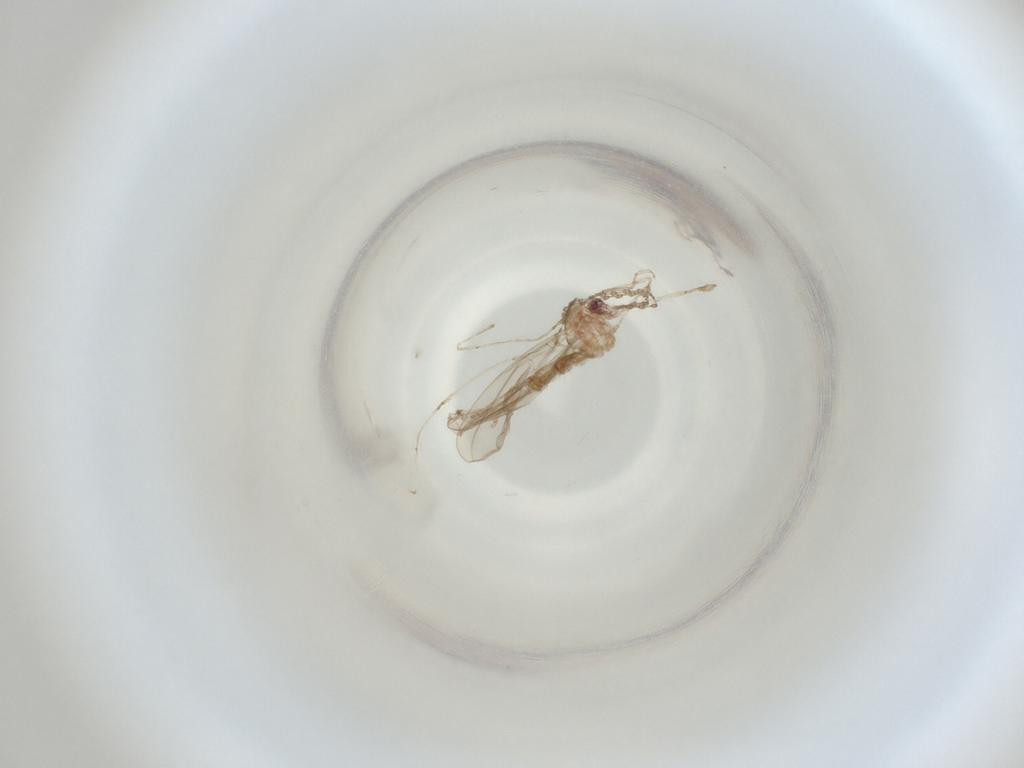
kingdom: Animalia
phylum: Arthropoda
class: Insecta
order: Diptera
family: Cecidomyiidae
